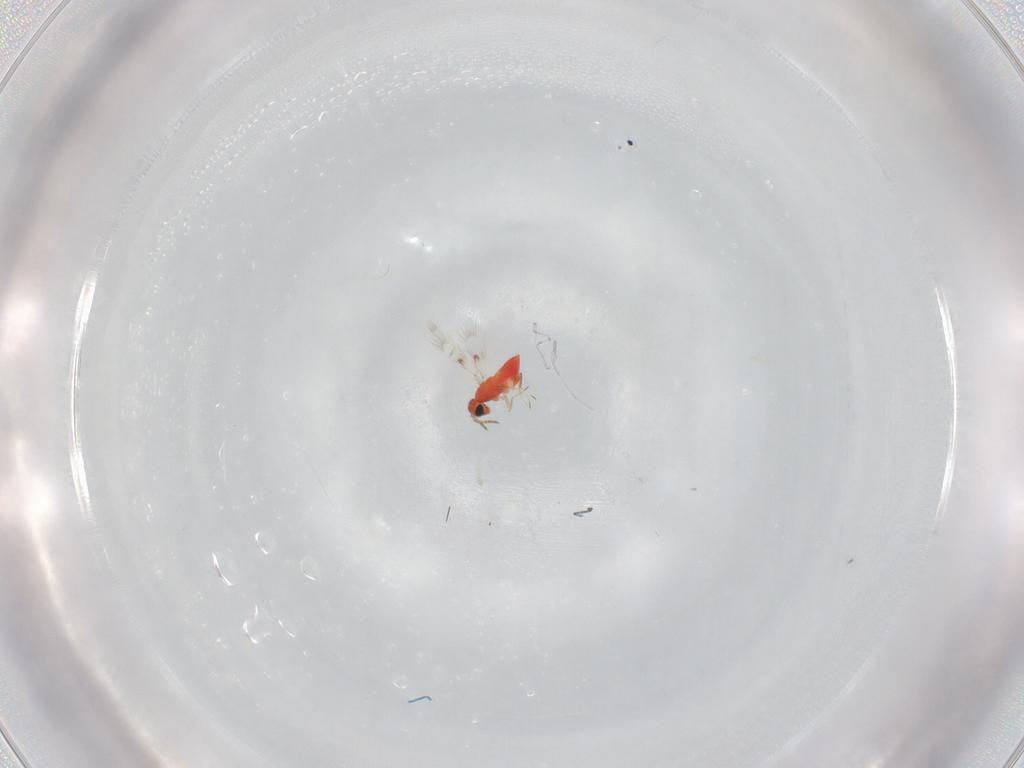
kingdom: Animalia
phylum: Arthropoda
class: Insecta
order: Hymenoptera
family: Trichogrammatidae
